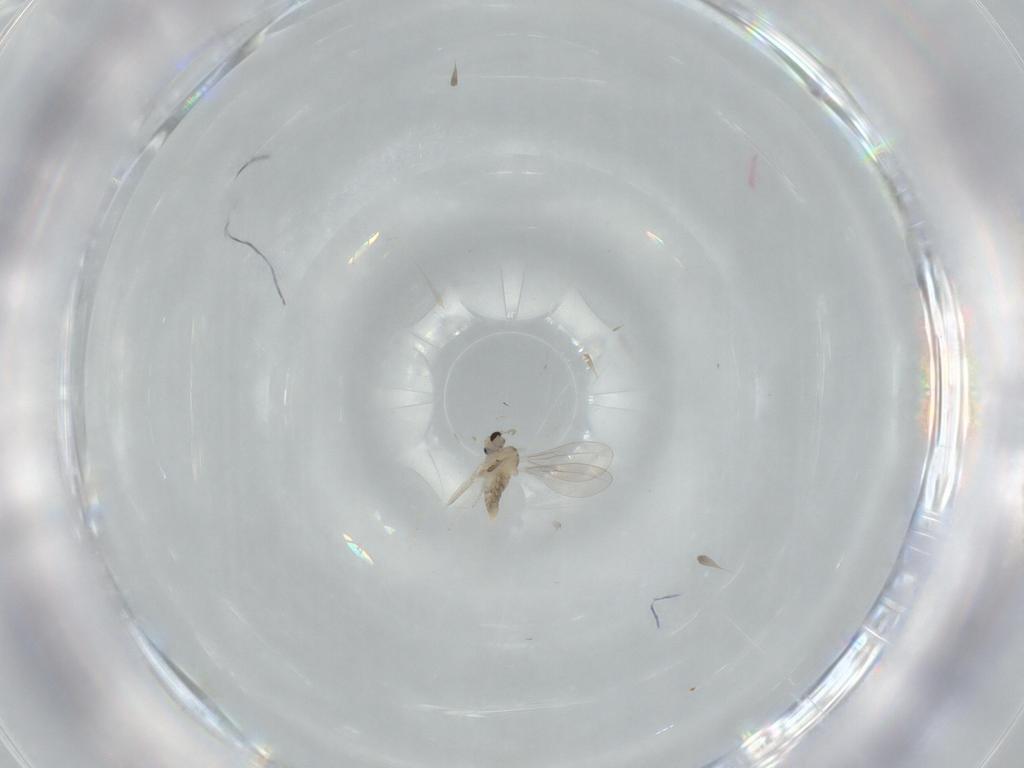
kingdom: Animalia
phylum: Arthropoda
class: Insecta
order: Diptera
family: Cecidomyiidae
